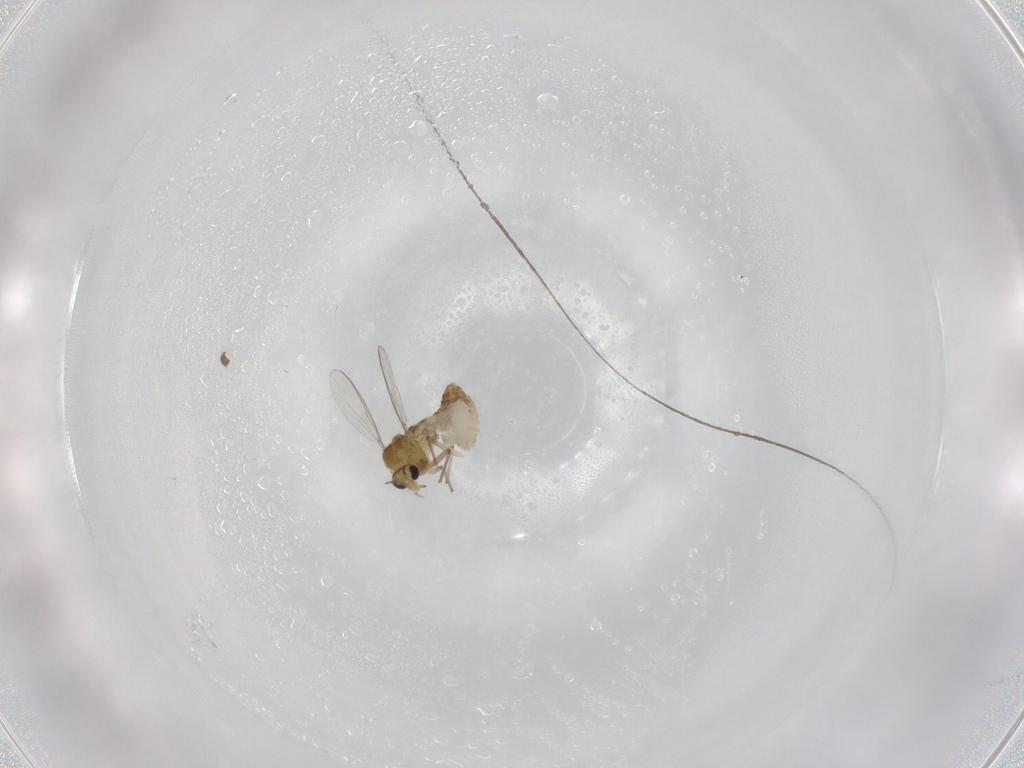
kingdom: Animalia
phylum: Arthropoda
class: Insecta
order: Diptera
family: Chironomidae
